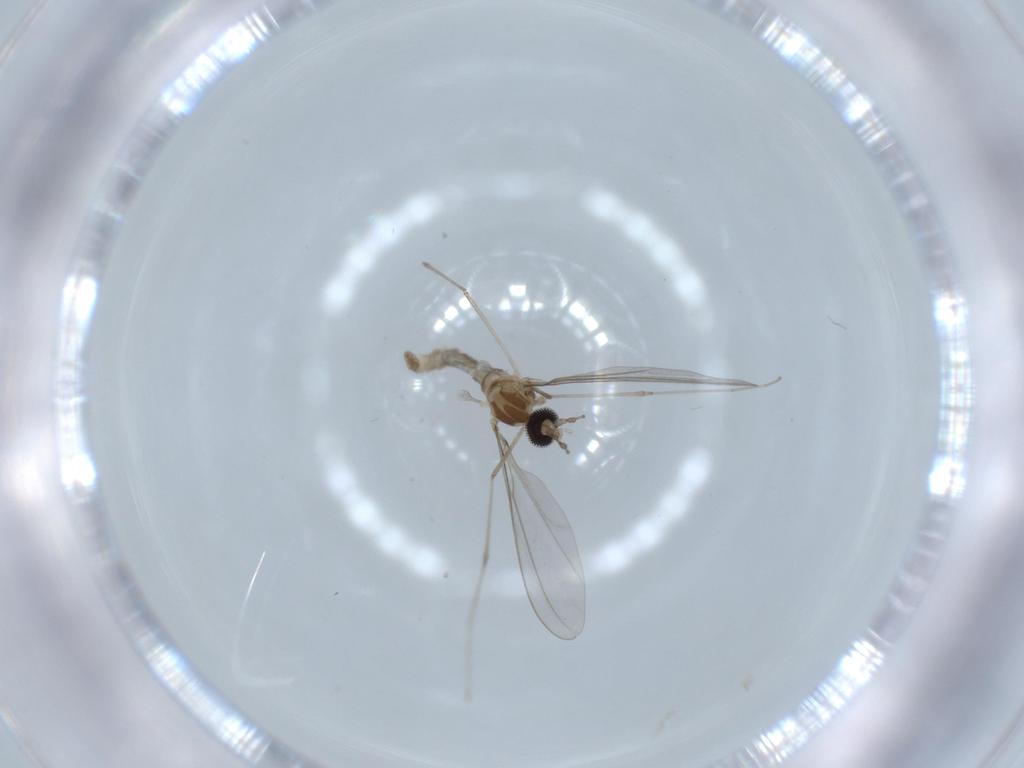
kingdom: Animalia
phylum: Arthropoda
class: Insecta
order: Diptera
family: Cecidomyiidae
